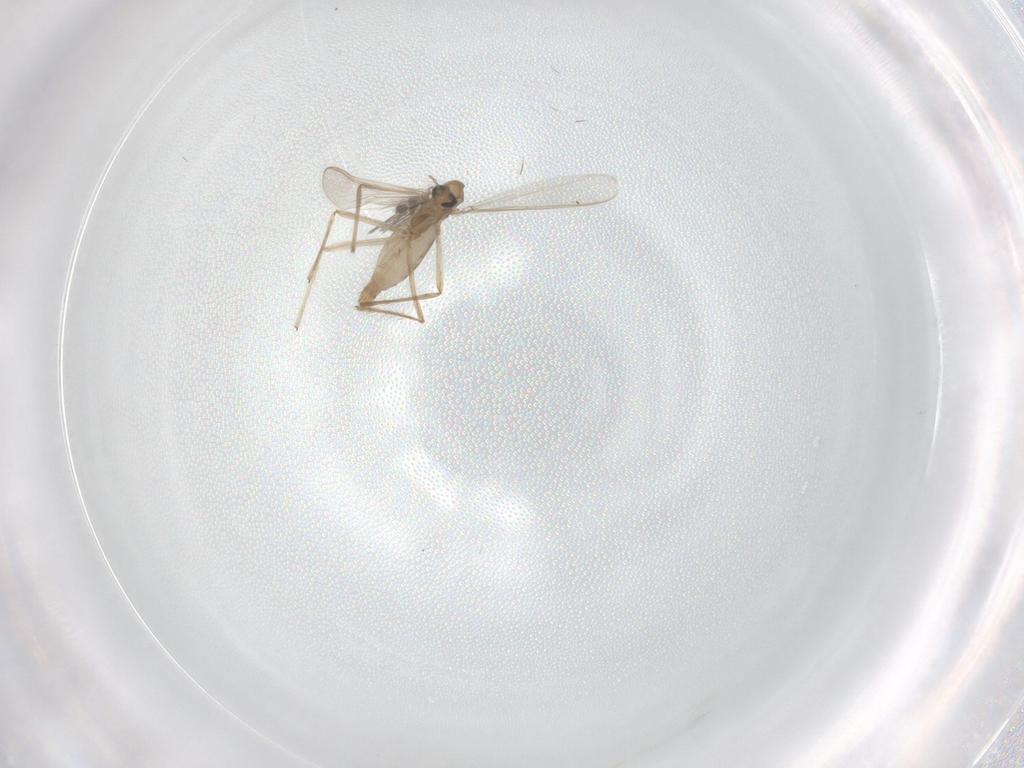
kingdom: Animalia
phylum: Arthropoda
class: Insecta
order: Diptera
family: Chironomidae
